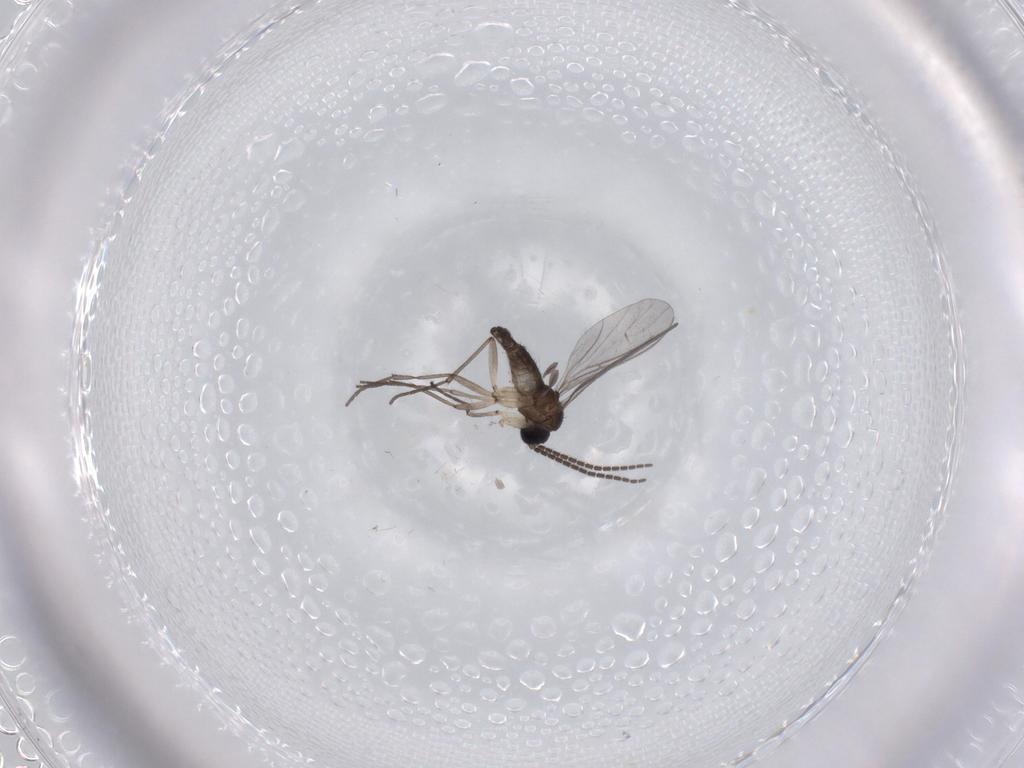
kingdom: Animalia
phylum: Arthropoda
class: Insecta
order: Diptera
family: Sciaridae
